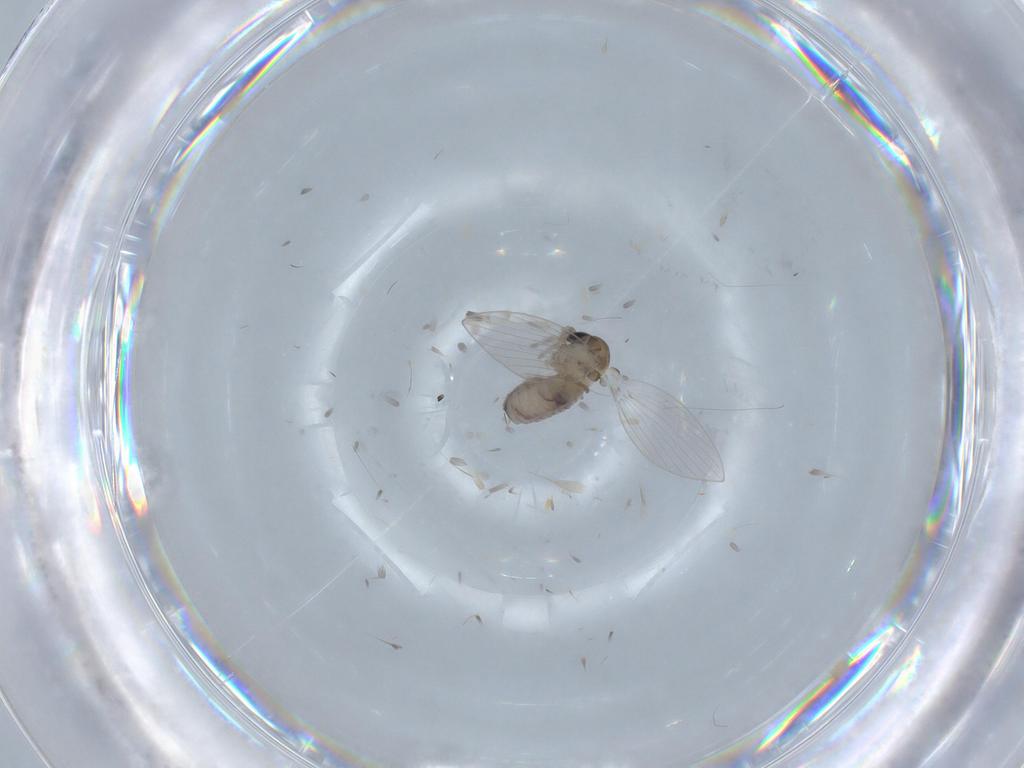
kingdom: Animalia
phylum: Arthropoda
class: Insecta
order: Diptera
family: Psychodidae
